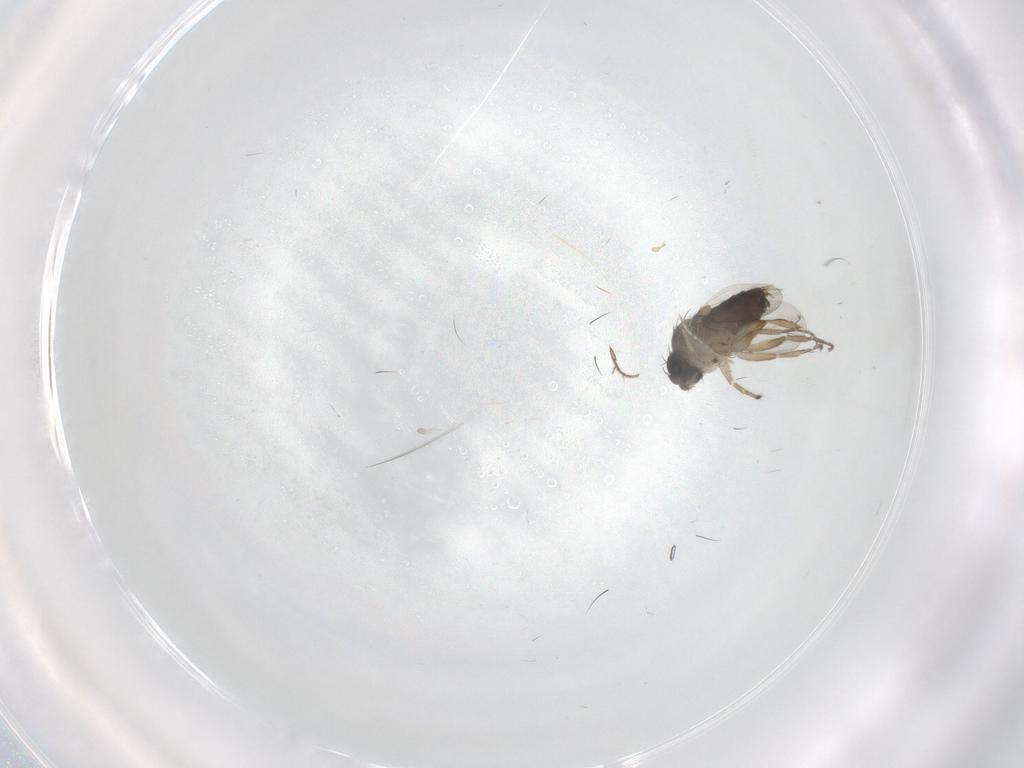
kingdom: Animalia
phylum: Arthropoda
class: Insecta
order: Diptera
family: Phoridae
